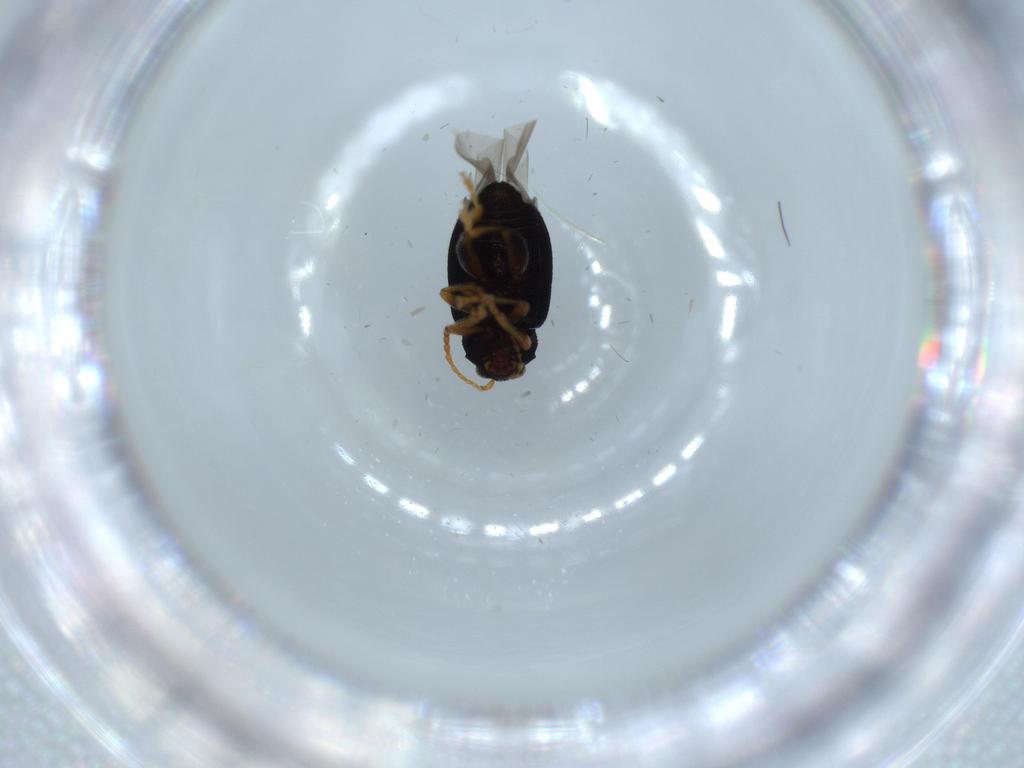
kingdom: Animalia
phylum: Arthropoda
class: Insecta
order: Coleoptera
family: Chrysomelidae
